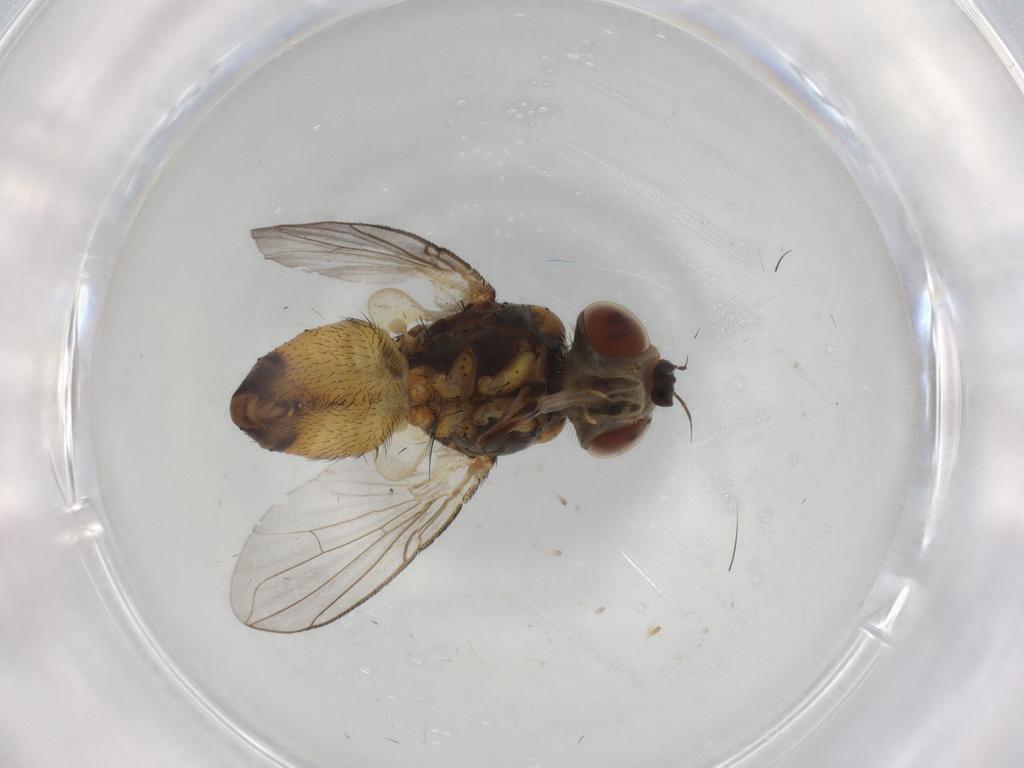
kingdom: Animalia
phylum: Arthropoda
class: Insecta
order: Diptera
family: Tachinidae
